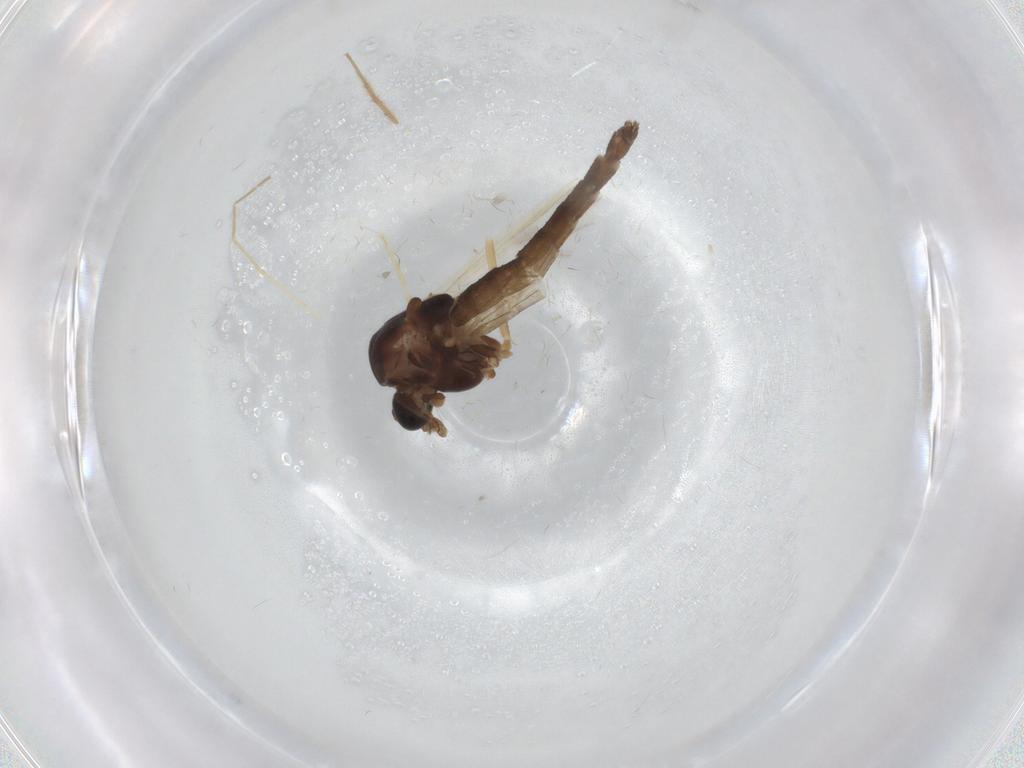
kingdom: Animalia
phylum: Arthropoda
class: Insecta
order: Diptera
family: Chironomidae
